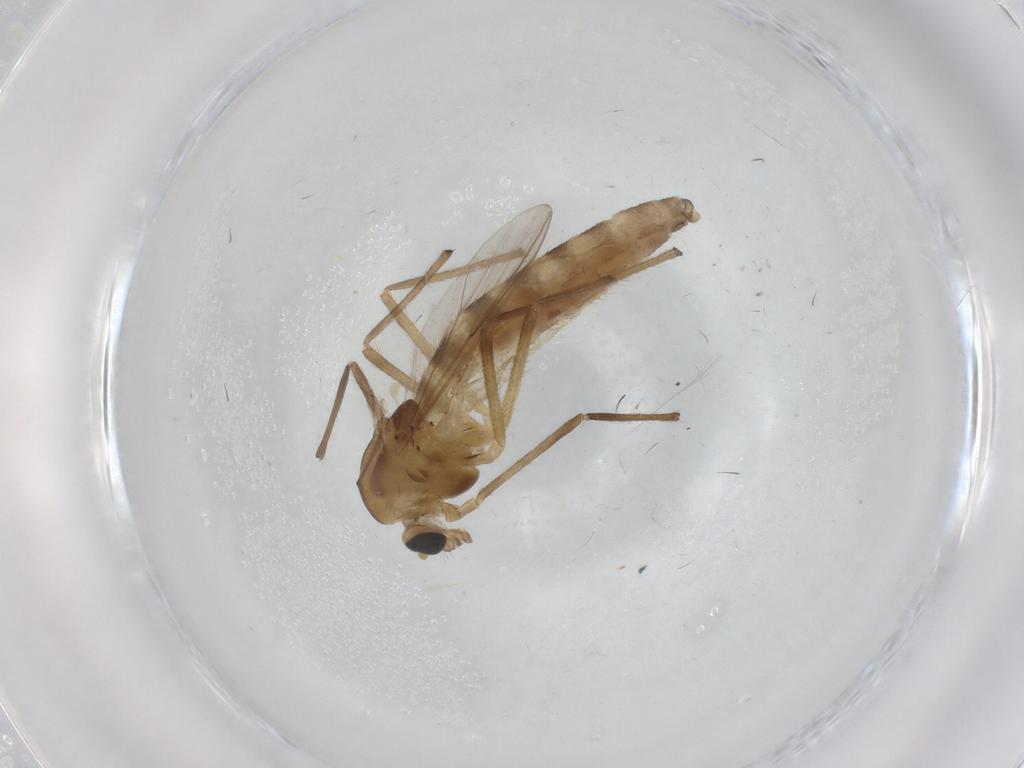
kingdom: Animalia
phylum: Arthropoda
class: Insecta
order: Diptera
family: Chironomidae
